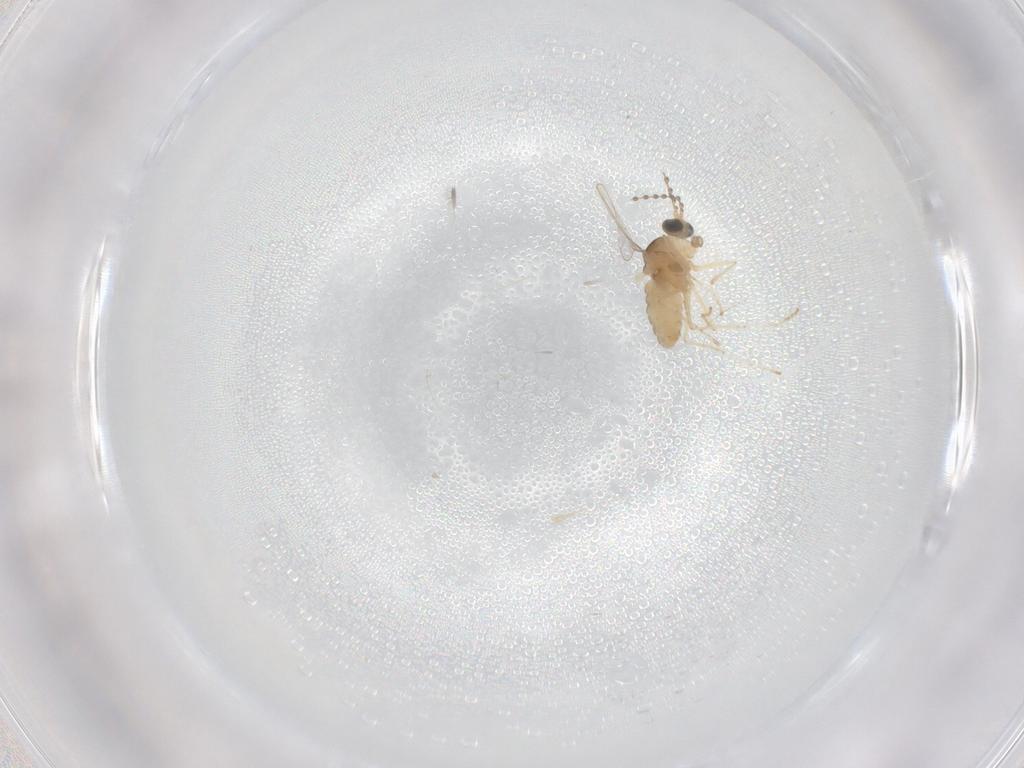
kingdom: Animalia
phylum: Arthropoda
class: Insecta
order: Diptera
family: Cecidomyiidae
